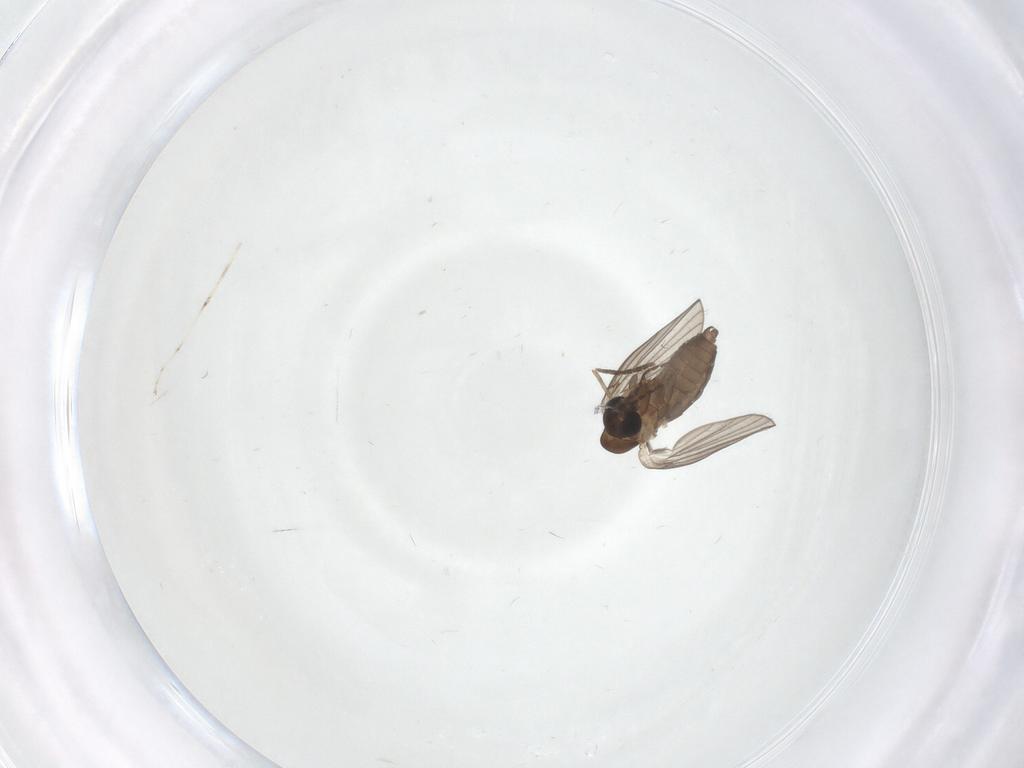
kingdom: Animalia
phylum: Arthropoda
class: Insecta
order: Diptera
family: Psychodidae
